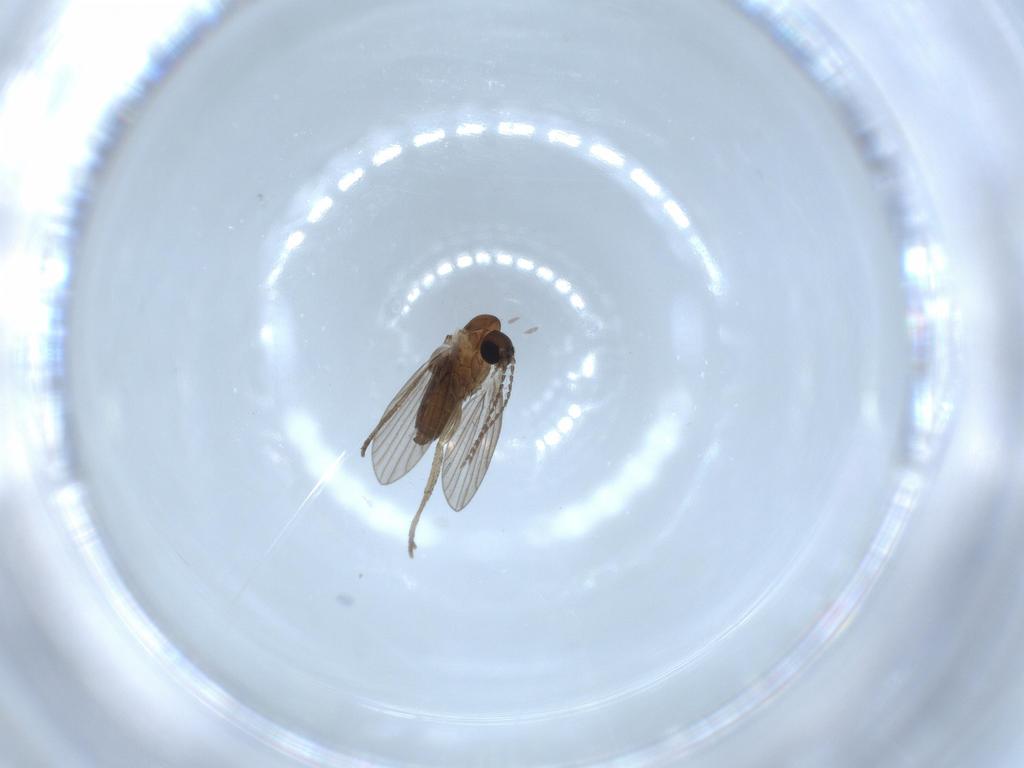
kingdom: Animalia
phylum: Arthropoda
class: Insecta
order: Diptera
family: Psychodidae
